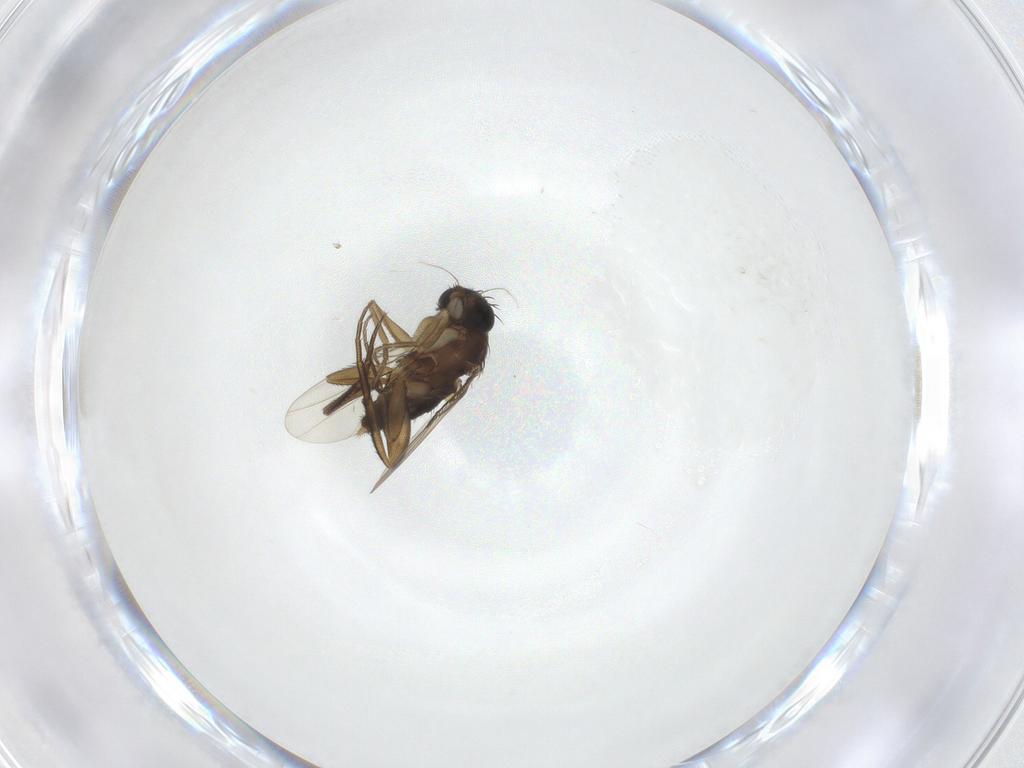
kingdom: Animalia
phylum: Arthropoda
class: Insecta
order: Diptera
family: Phoridae
